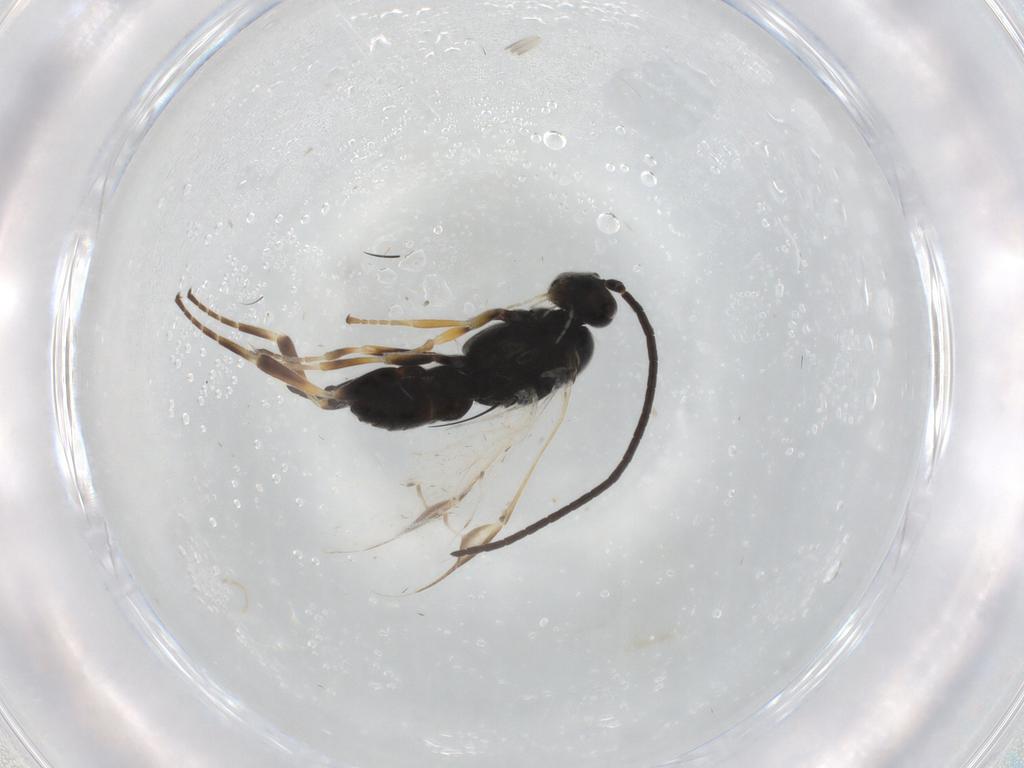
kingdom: Animalia
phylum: Arthropoda
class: Insecta
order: Hymenoptera
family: Braconidae
